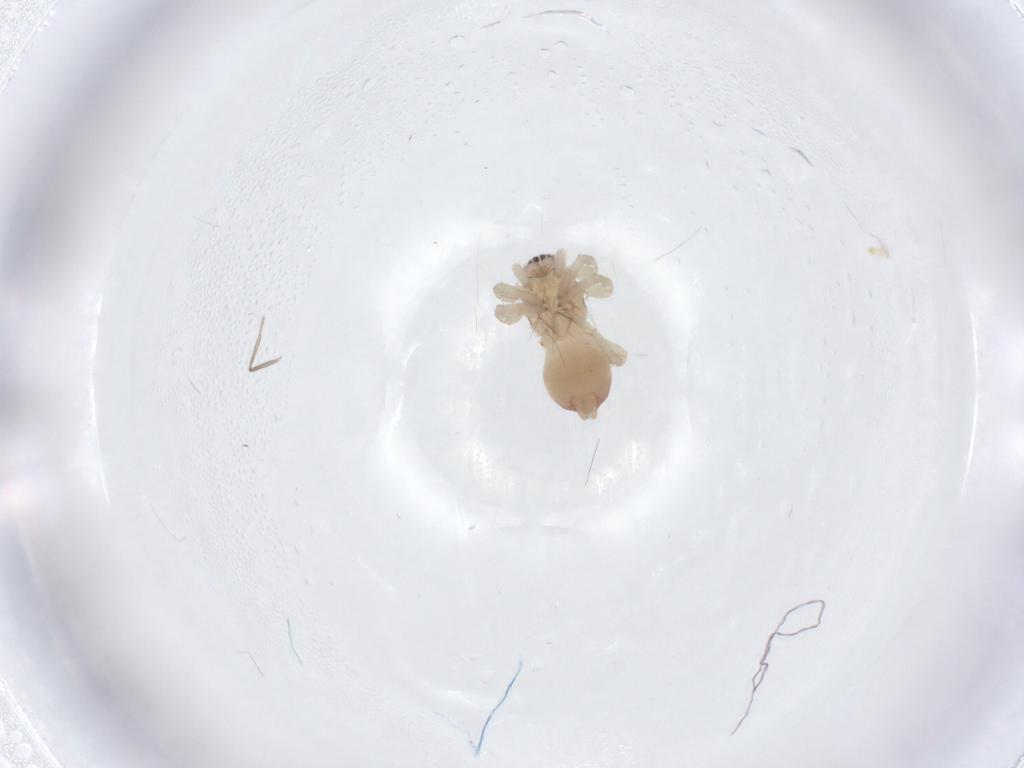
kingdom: Animalia
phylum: Arthropoda
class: Arachnida
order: Araneae
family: Clubionidae
